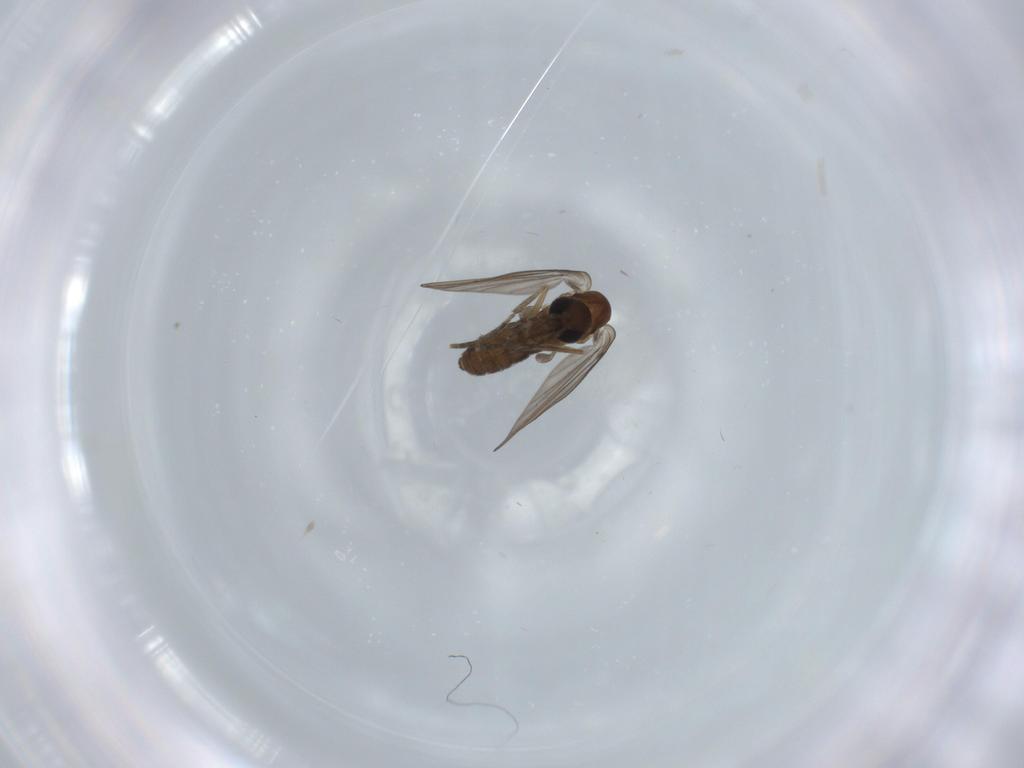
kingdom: Animalia
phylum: Arthropoda
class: Insecta
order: Diptera
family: Psychodidae
